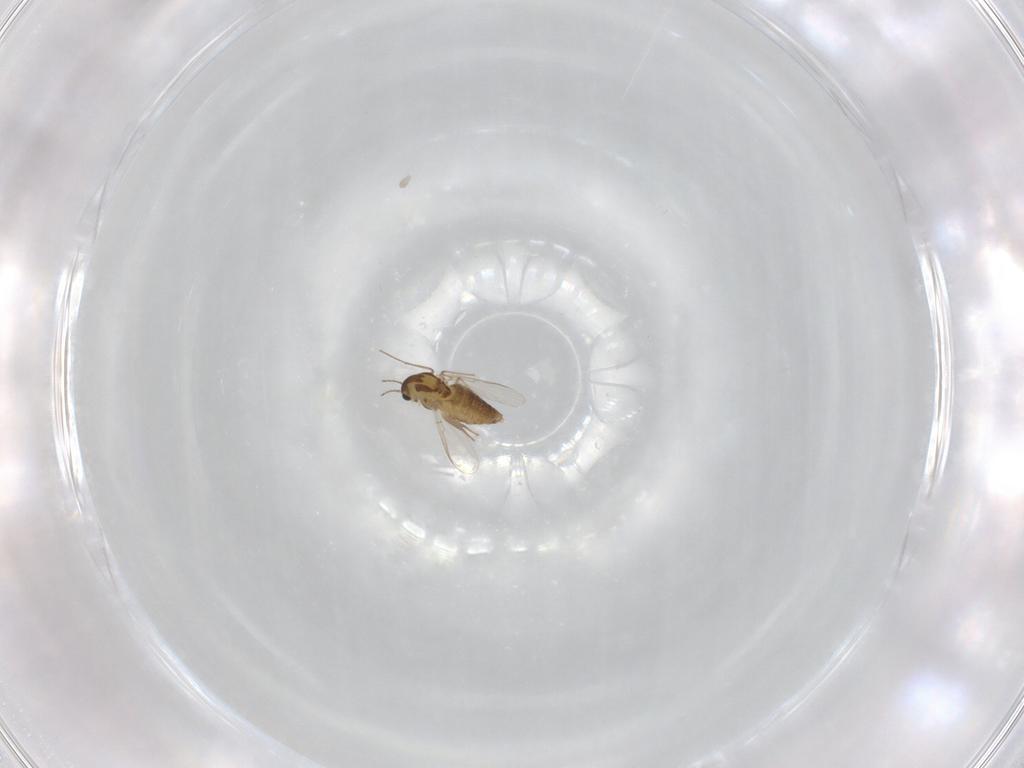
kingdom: Animalia
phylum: Arthropoda
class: Insecta
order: Diptera
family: Chironomidae
